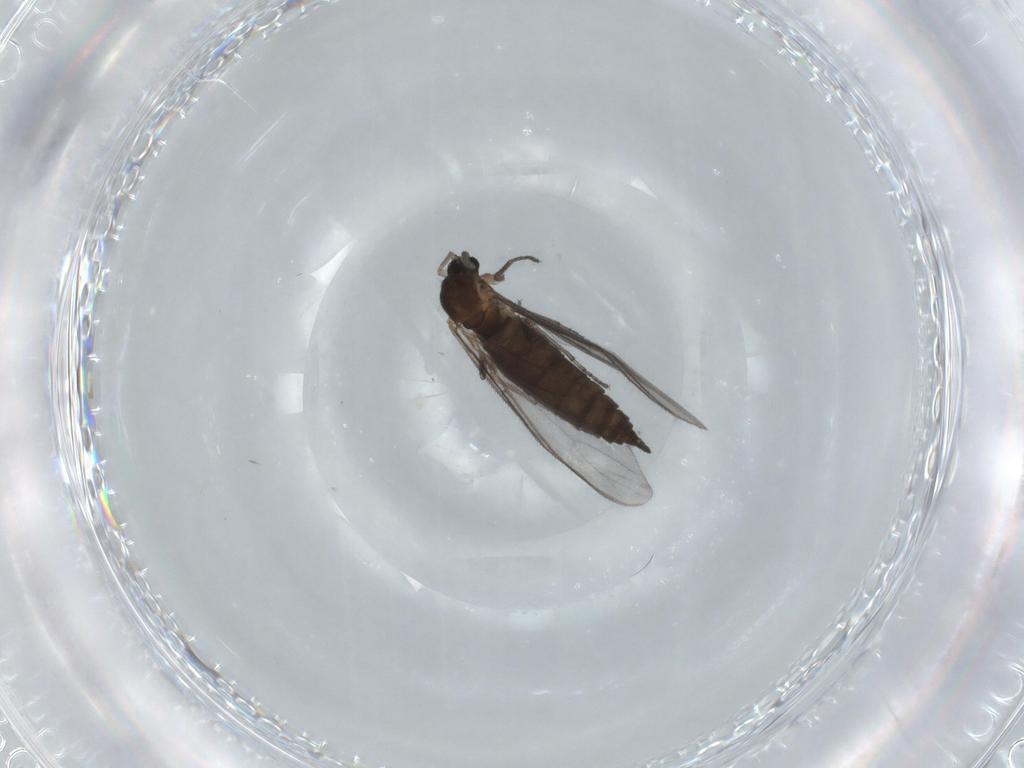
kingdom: Animalia
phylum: Arthropoda
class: Insecta
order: Diptera
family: Sciaridae
